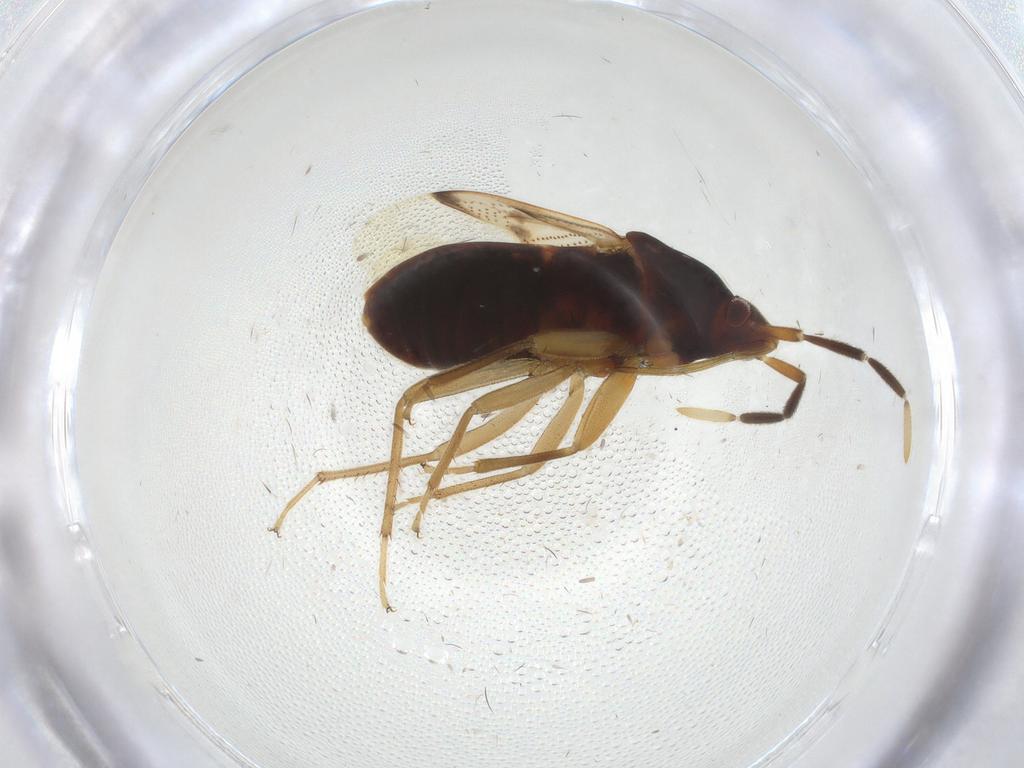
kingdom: Animalia
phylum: Arthropoda
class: Insecta
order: Hemiptera
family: Rhyparochromidae
